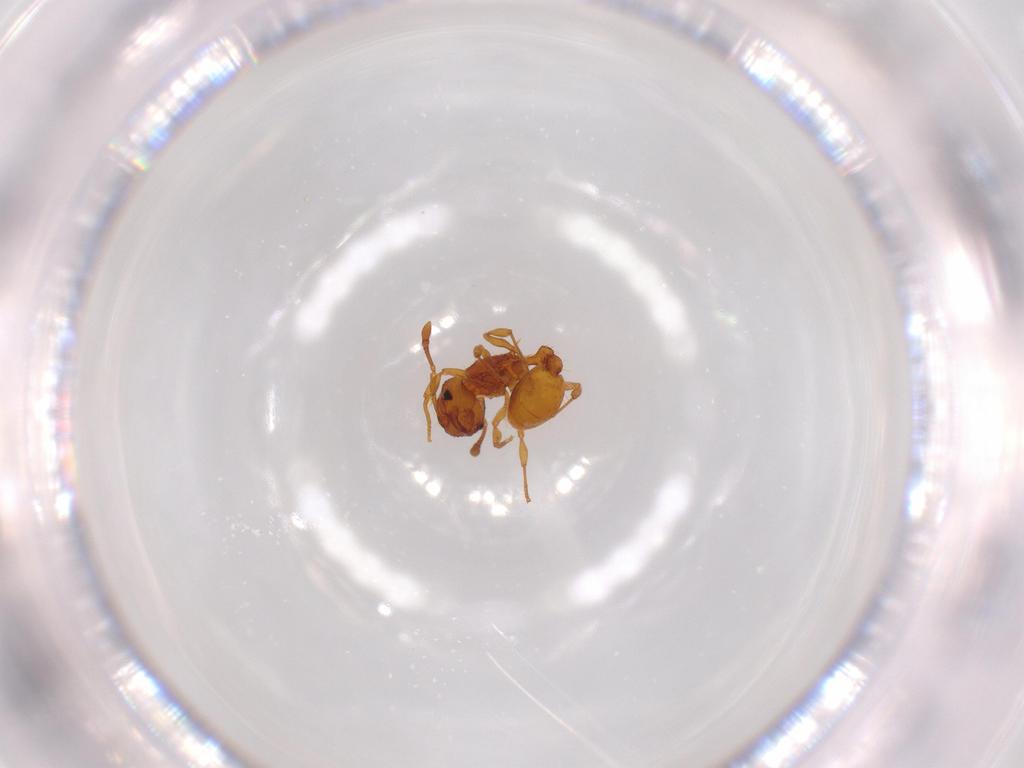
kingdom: Animalia
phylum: Arthropoda
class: Insecta
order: Hymenoptera
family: Formicidae
